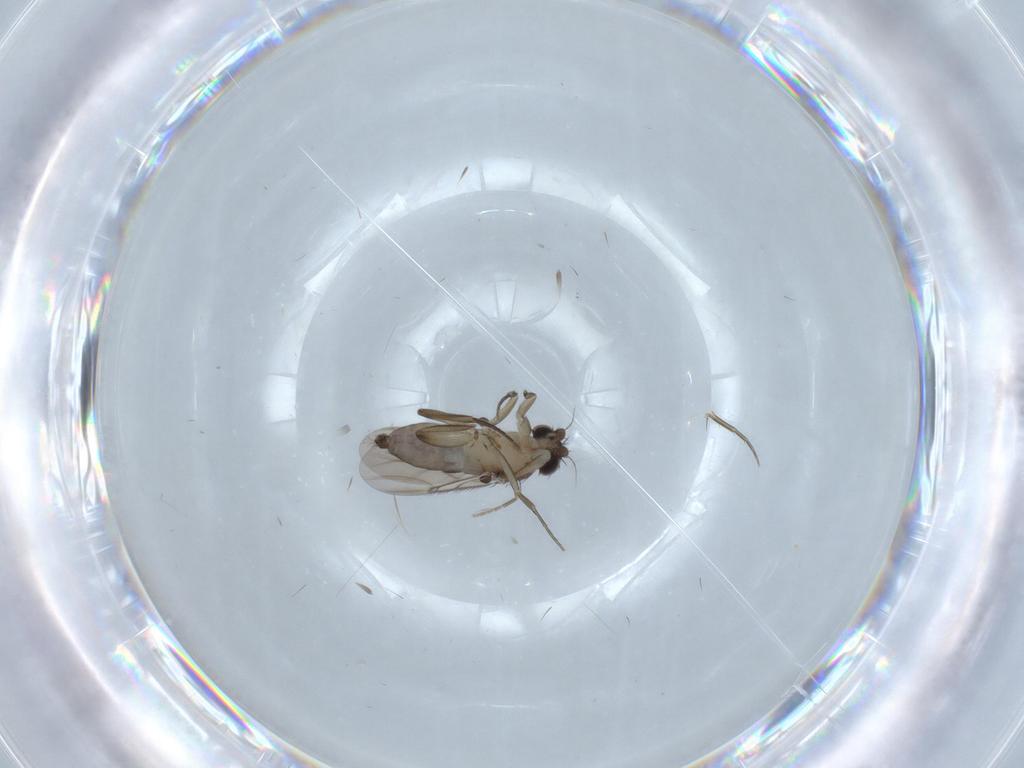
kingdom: Animalia
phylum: Arthropoda
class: Insecta
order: Diptera
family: Phoridae
